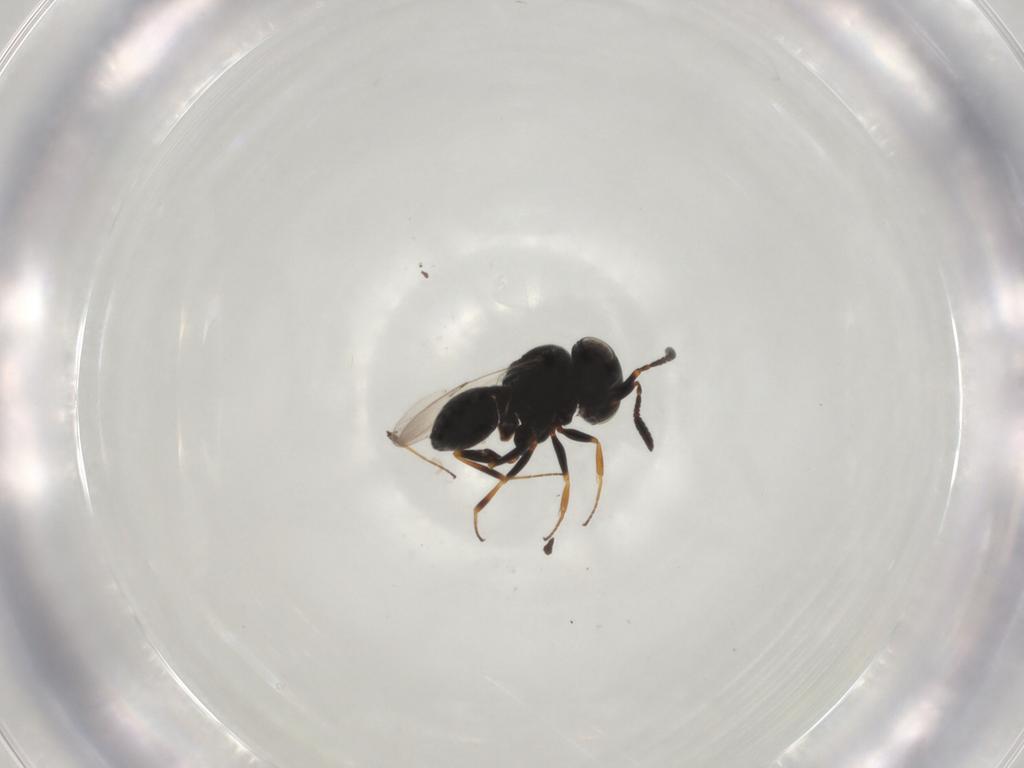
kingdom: Animalia
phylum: Arthropoda
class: Insecta
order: Hymenoptera
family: Scelionidae
